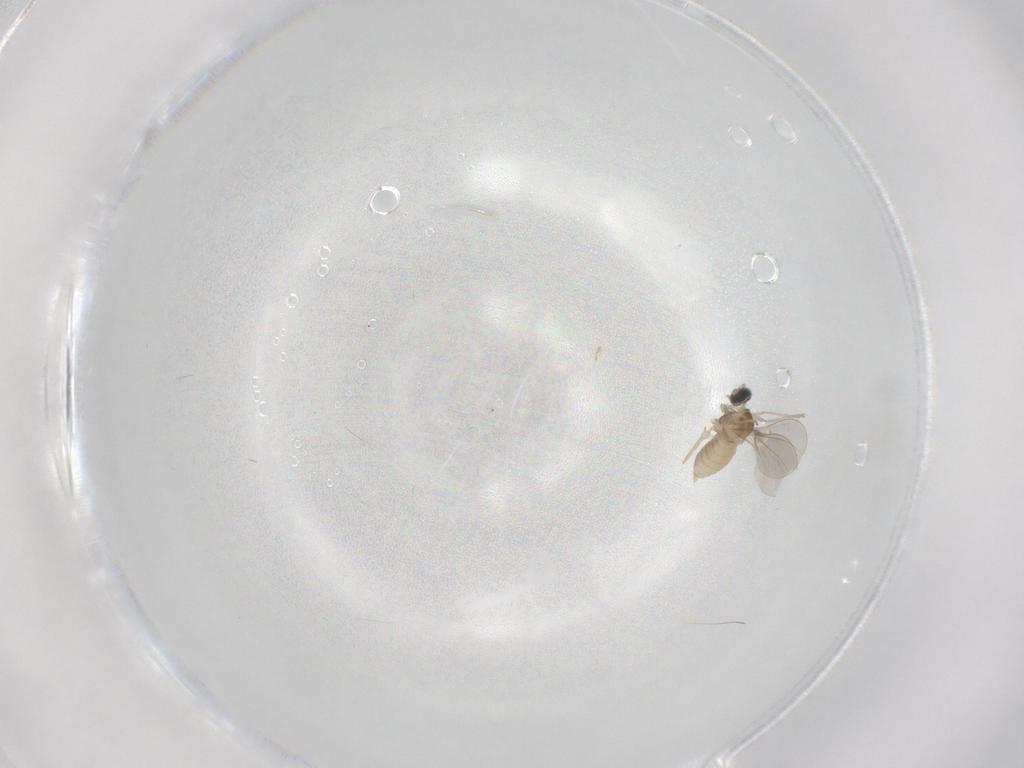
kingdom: Animalia
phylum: Arthropoda
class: Insecta
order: Diptera
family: Cecidomyiidae
